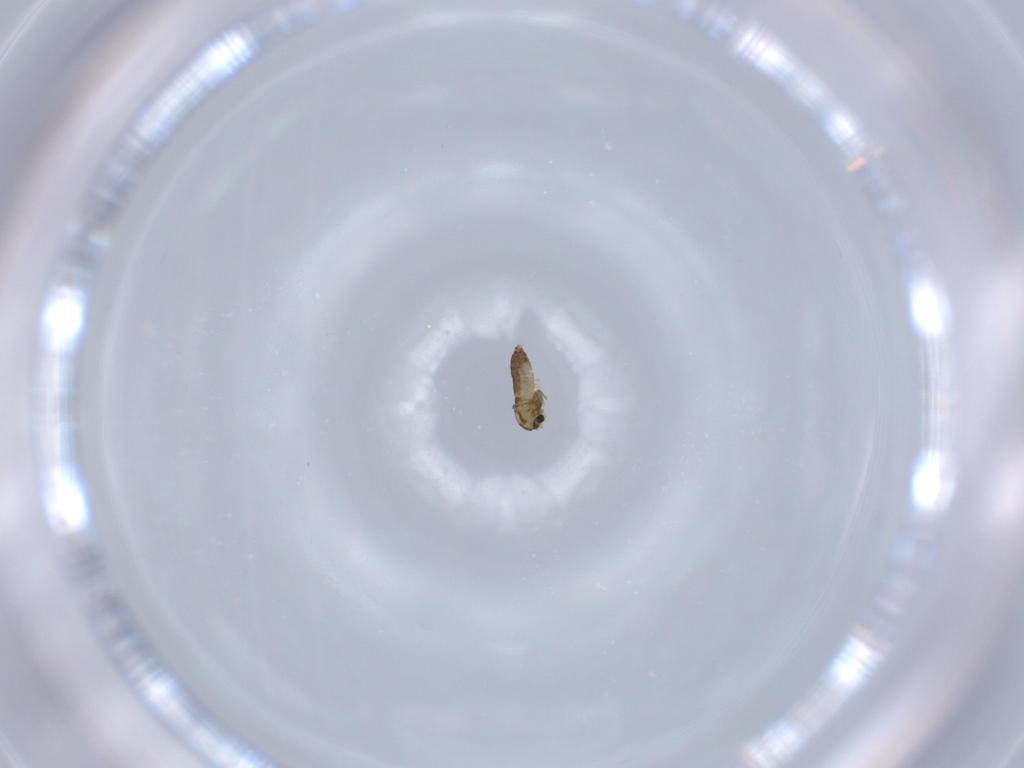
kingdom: Animalia
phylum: Arthropoda
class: Insecta
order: Diptera
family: Chironomidae
